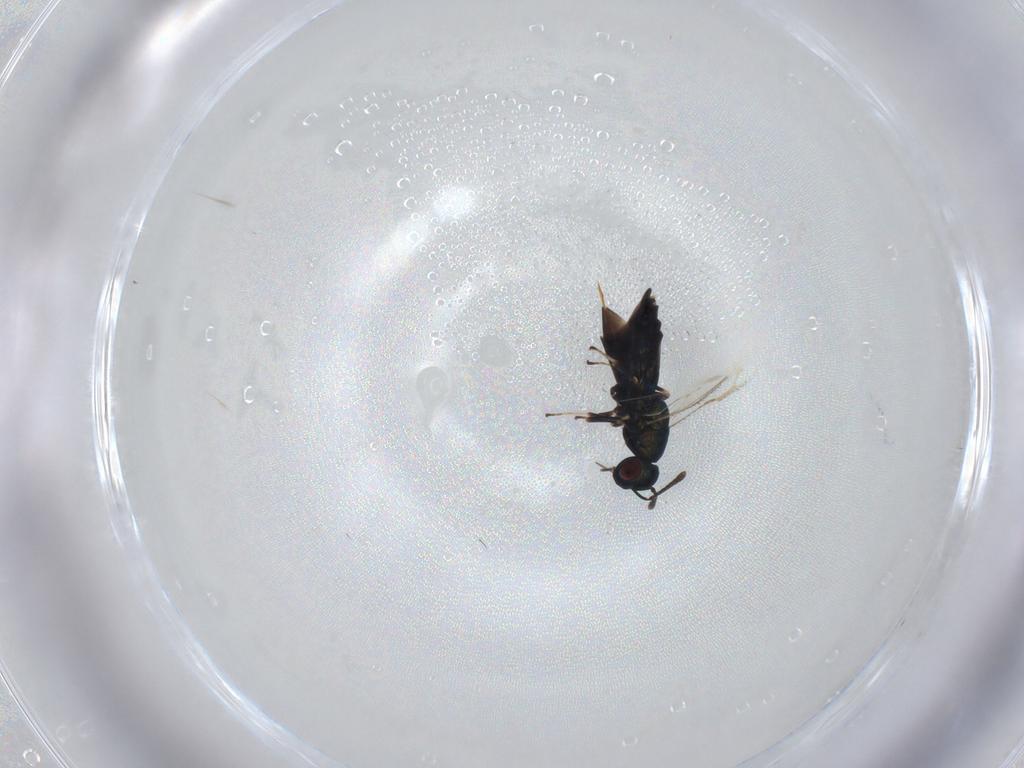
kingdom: Animalia
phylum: Arthropoda
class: Insecta
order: Hymenoptera
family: Pteromalidae
